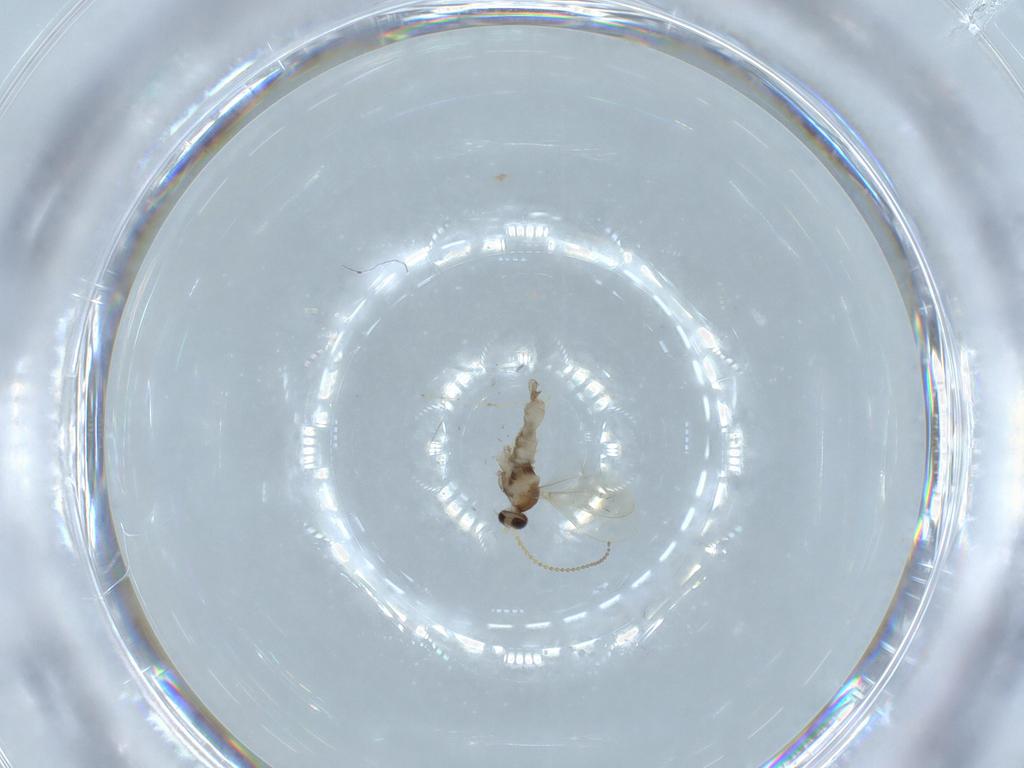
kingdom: Animalia
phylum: Arthropoda
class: Insecta
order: Diptera
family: Cecidomyiidae
